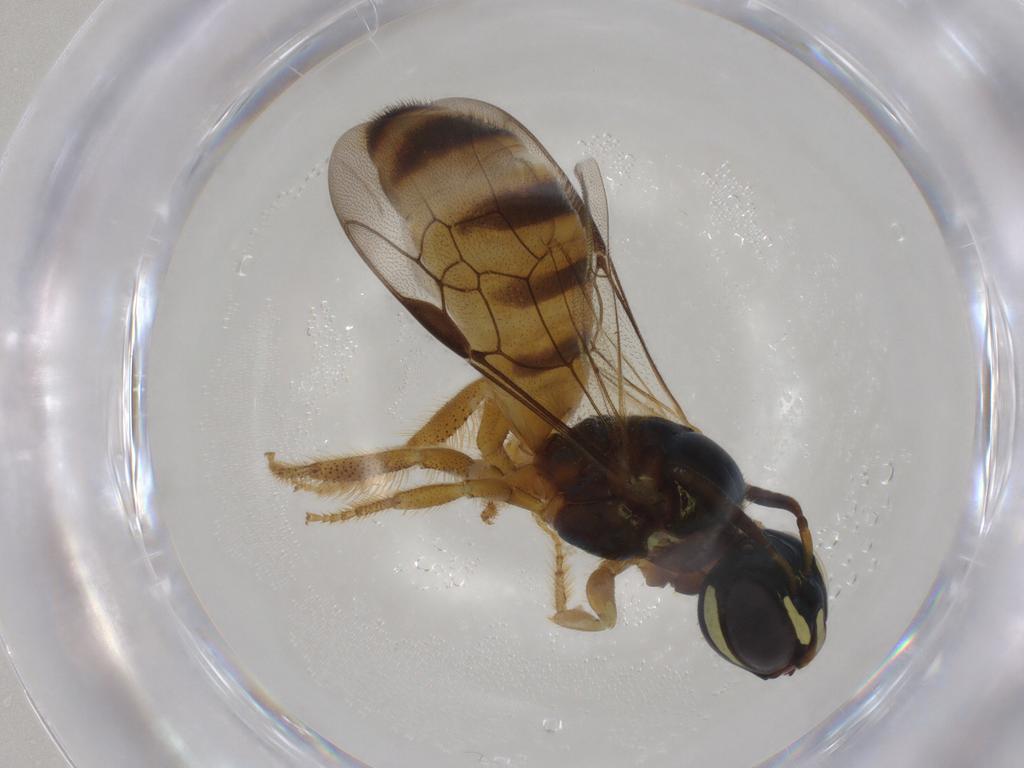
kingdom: Animalia
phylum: Arthropoda
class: Insecta
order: Hymenoptera
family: Apidae
